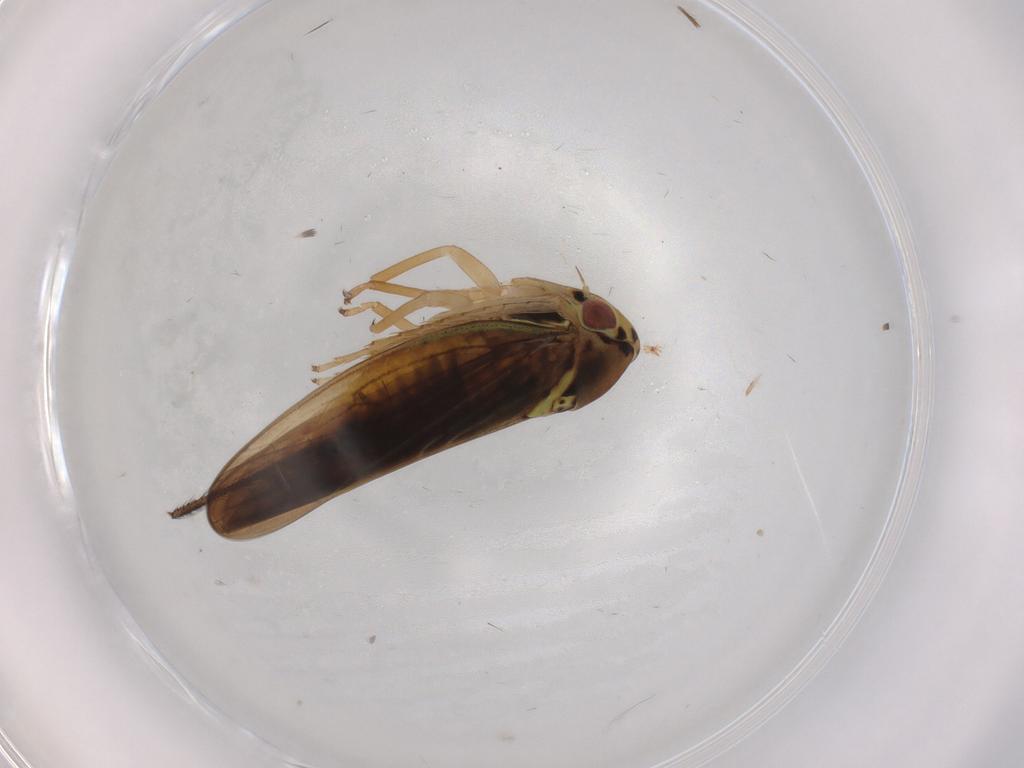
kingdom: Animalia
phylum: Arthropoda
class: Insecta
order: Hemiptera
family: Cicadellidae
